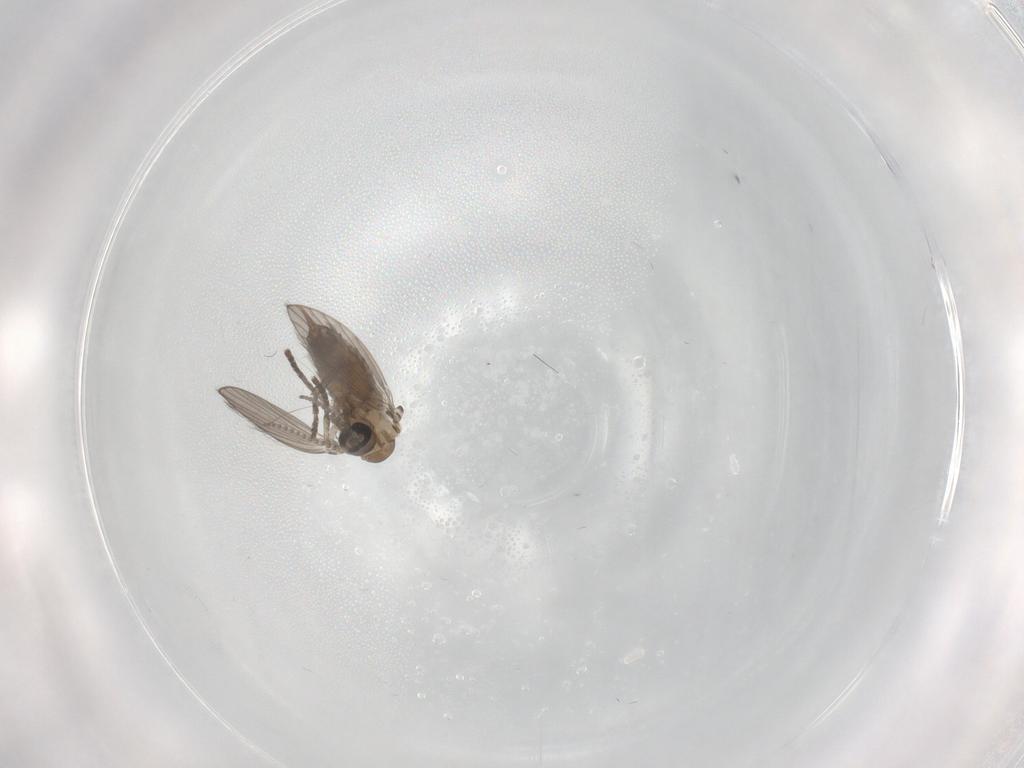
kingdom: Animalia
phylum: Arthropoda
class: Insecta
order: Diptera
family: Psychodidae
